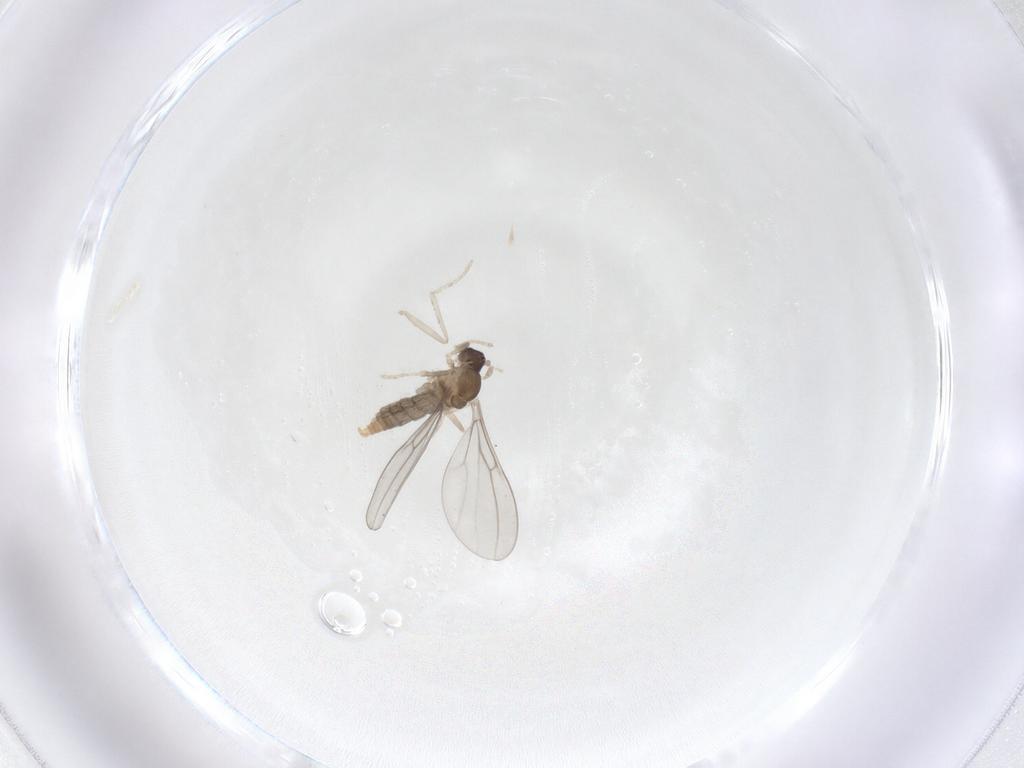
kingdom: Animalia
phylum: Arthropoda
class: Insecta
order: Diptera
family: Cecidomyiidae
